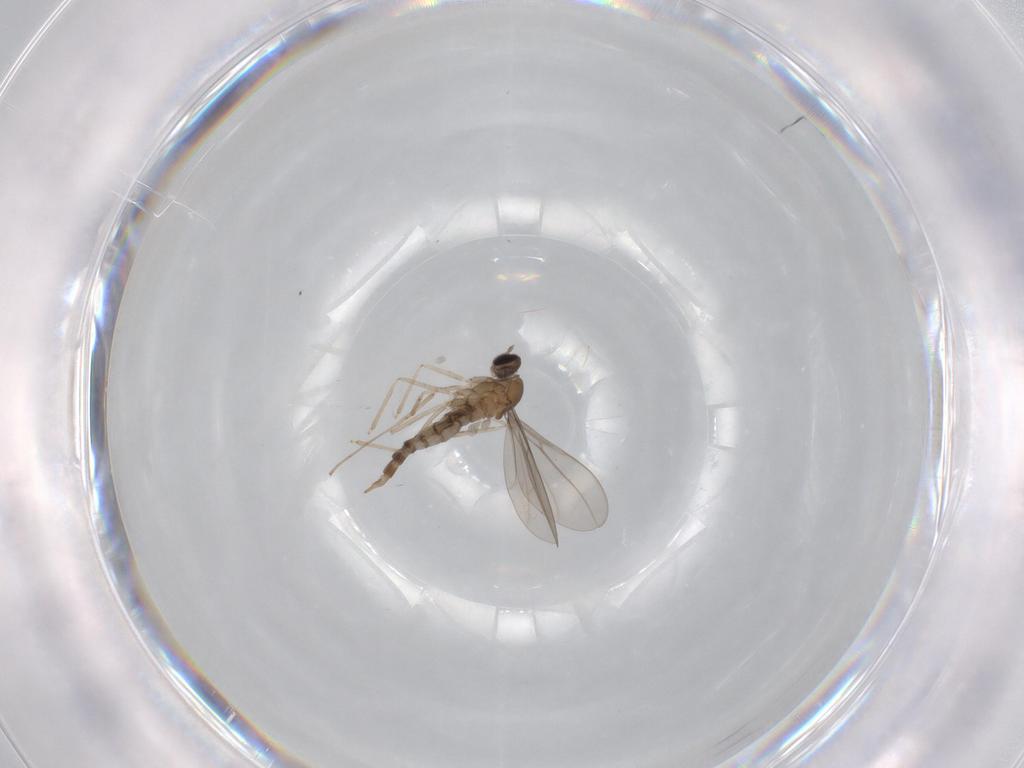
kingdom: Animalia
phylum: Arthropoda
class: Insecta
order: Diptera
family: Cecidomyiidae
